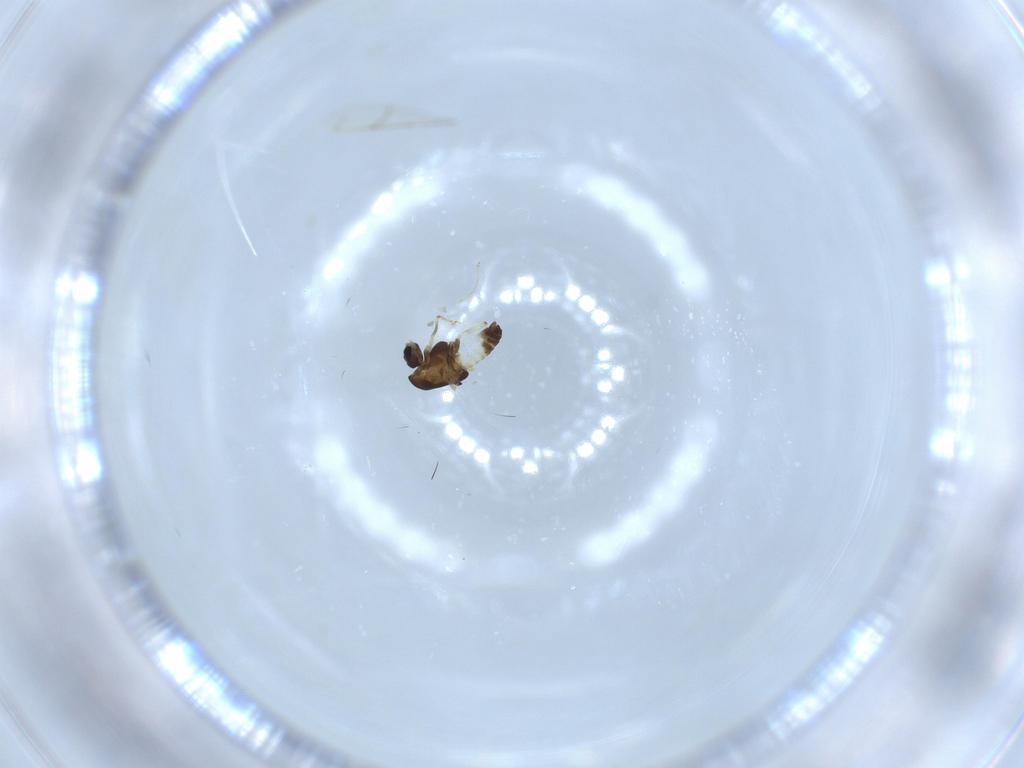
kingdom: Animalia
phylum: Arthropoda
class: Insecta
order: Diptera
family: Chironomidae
